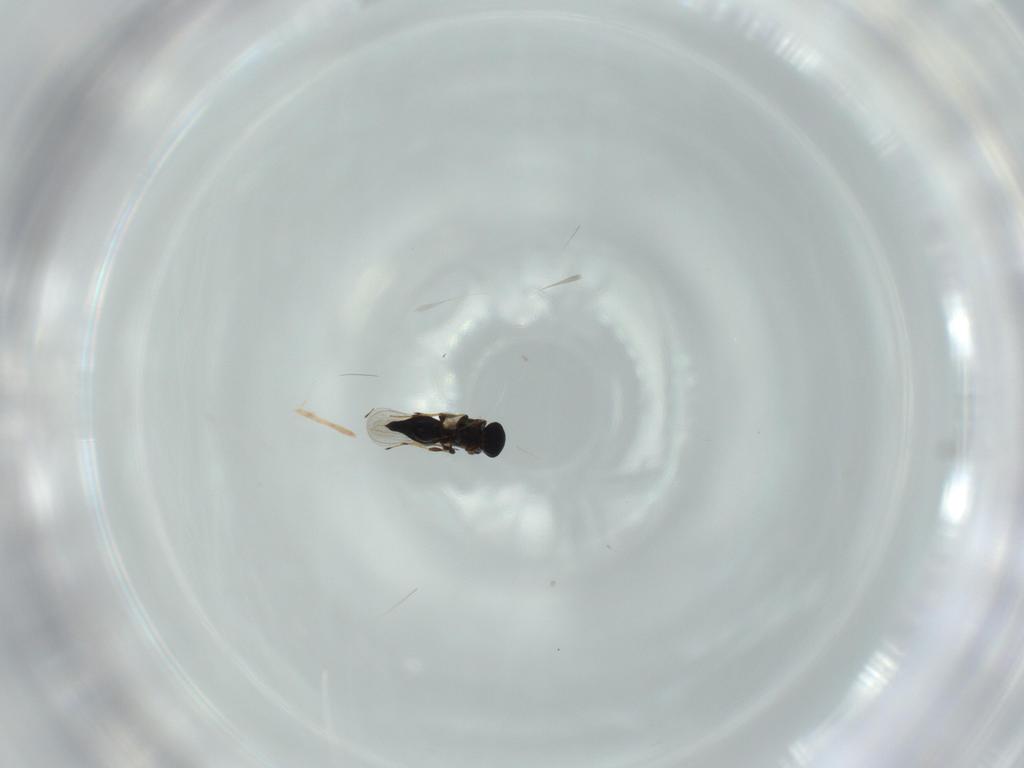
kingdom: Animalia
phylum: Arthropoda
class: Insecta
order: Hymenoptera
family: Platygastridae
